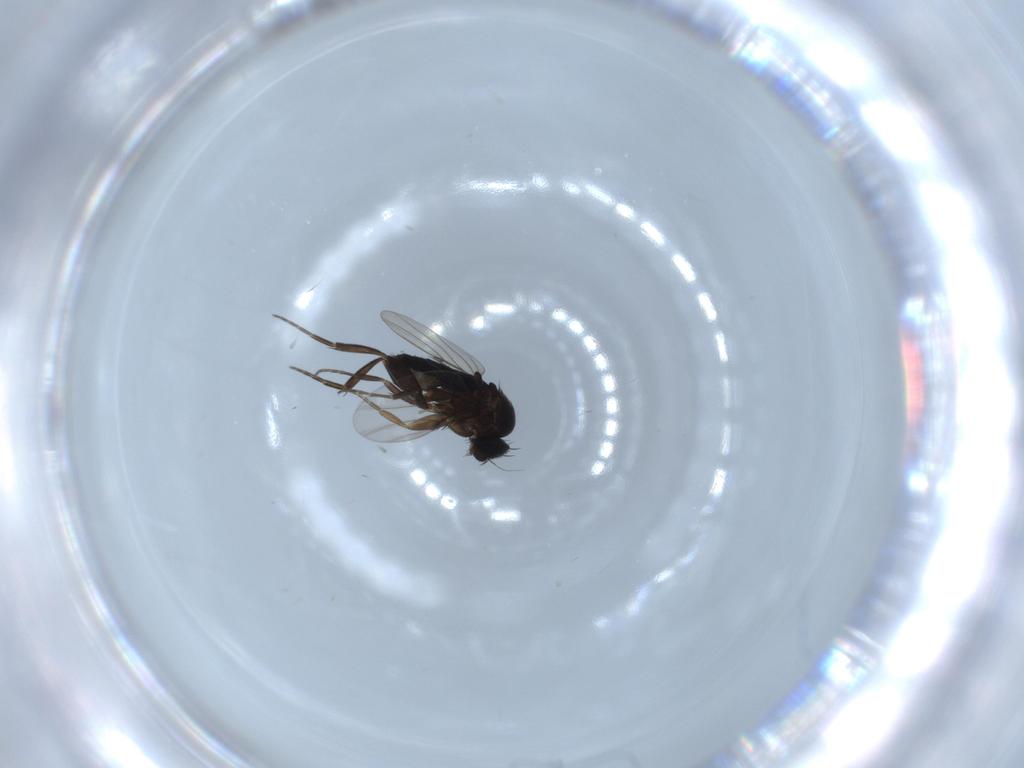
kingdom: Animalia
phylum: Arthropoda
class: Insecta
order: Diptera
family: Phoridae
